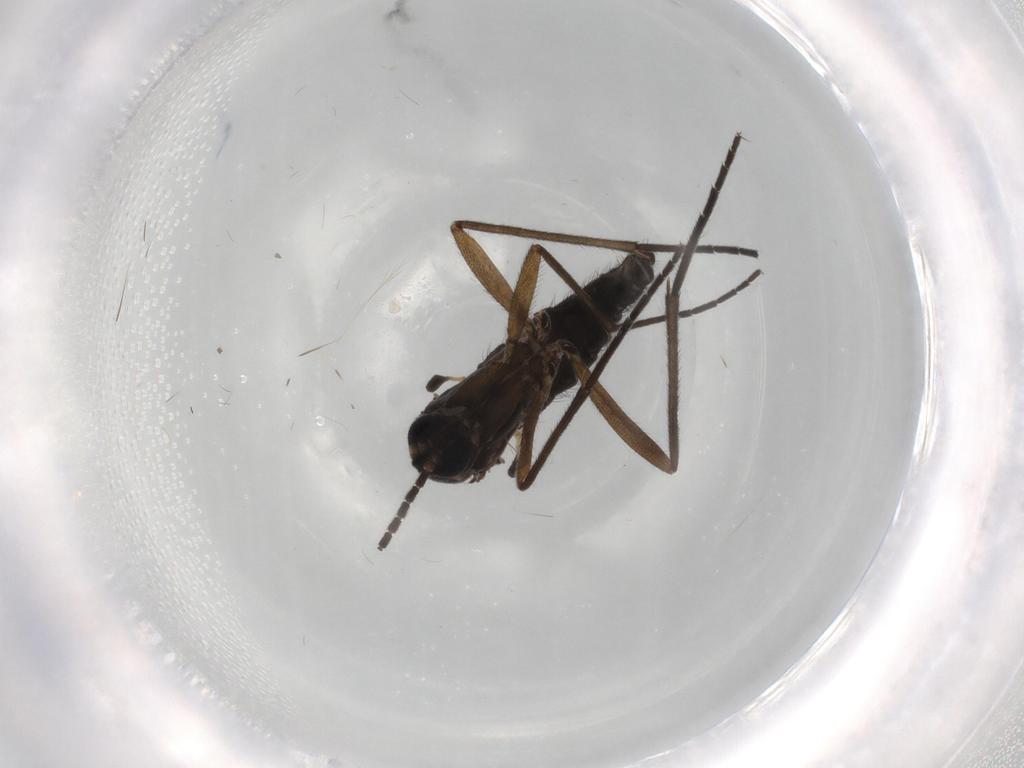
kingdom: Animalia
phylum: Arthropoda
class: Insecta
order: Diptera
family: Sciaridae
